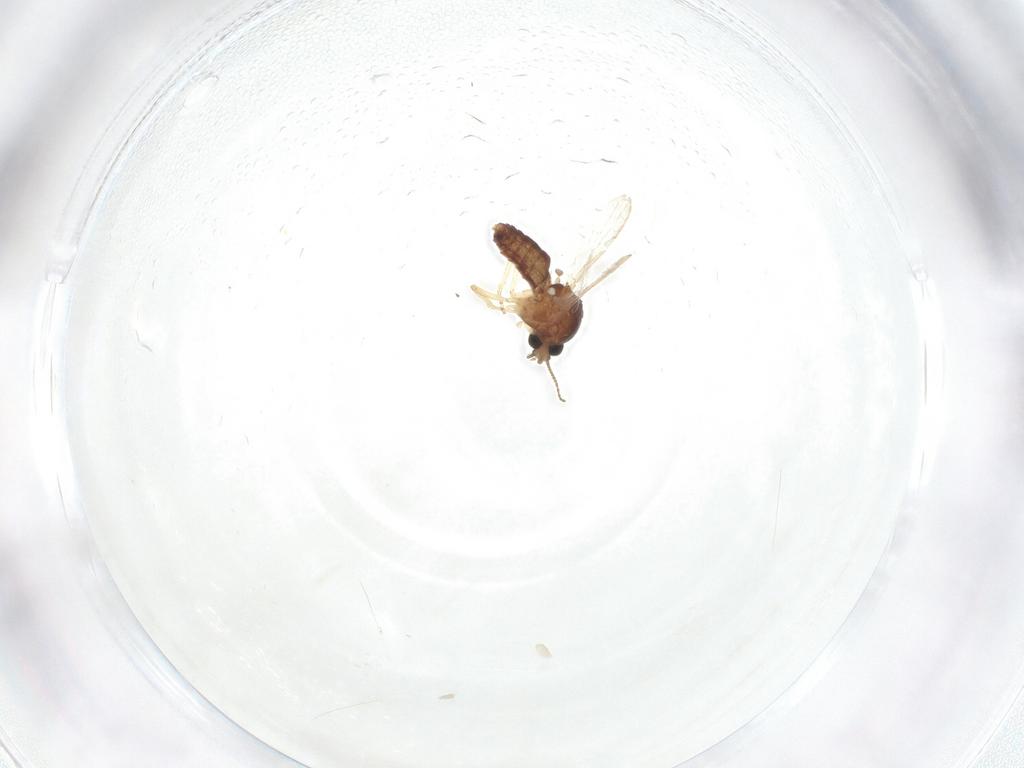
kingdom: Animalia
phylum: Arthropoda
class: Insecta
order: Diptera
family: Ceratopogonidae
